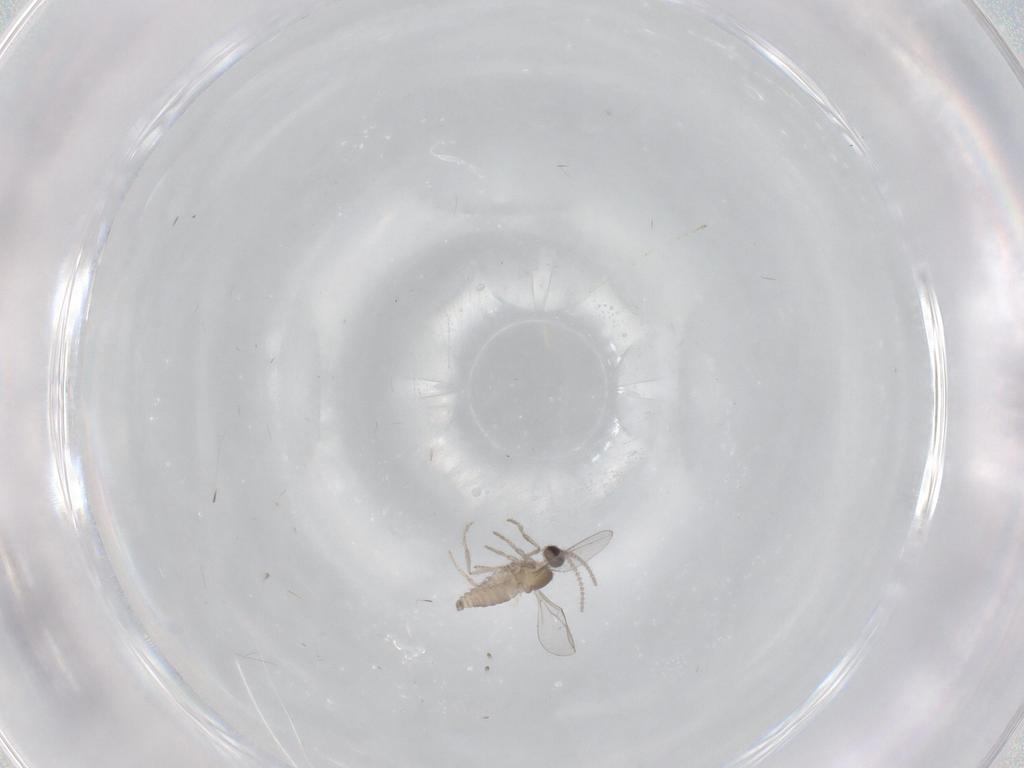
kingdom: Animalia
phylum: Arthropoda
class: Insecta
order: Diptera
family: Cecidomyiidae
